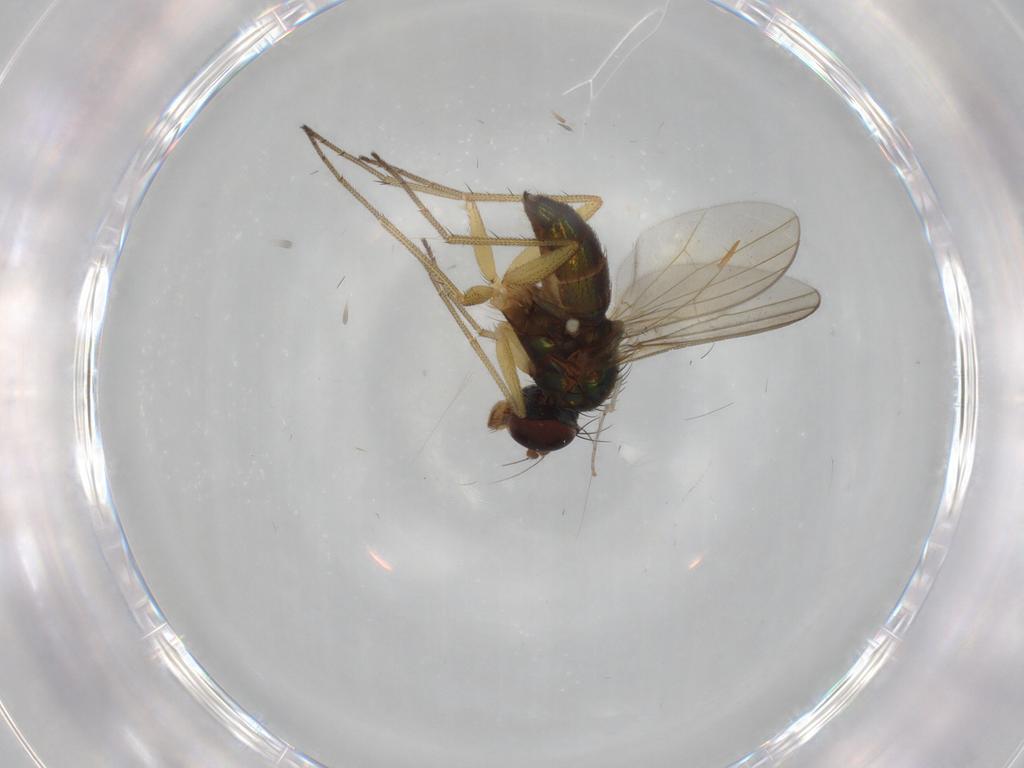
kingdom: Animalia
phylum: Arthropoda
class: Insecta
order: Diptera
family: Dolichopodidae
